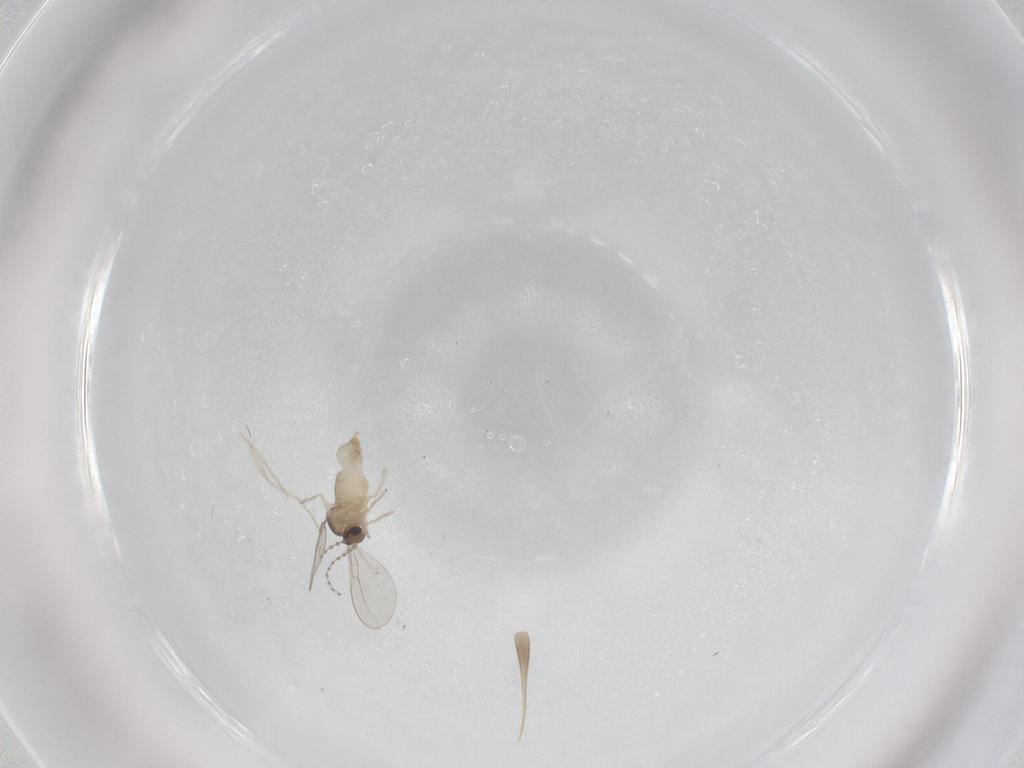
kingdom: Animalia
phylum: Arthropoda
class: Insecta
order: Diptera
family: Cecidomyiidae
